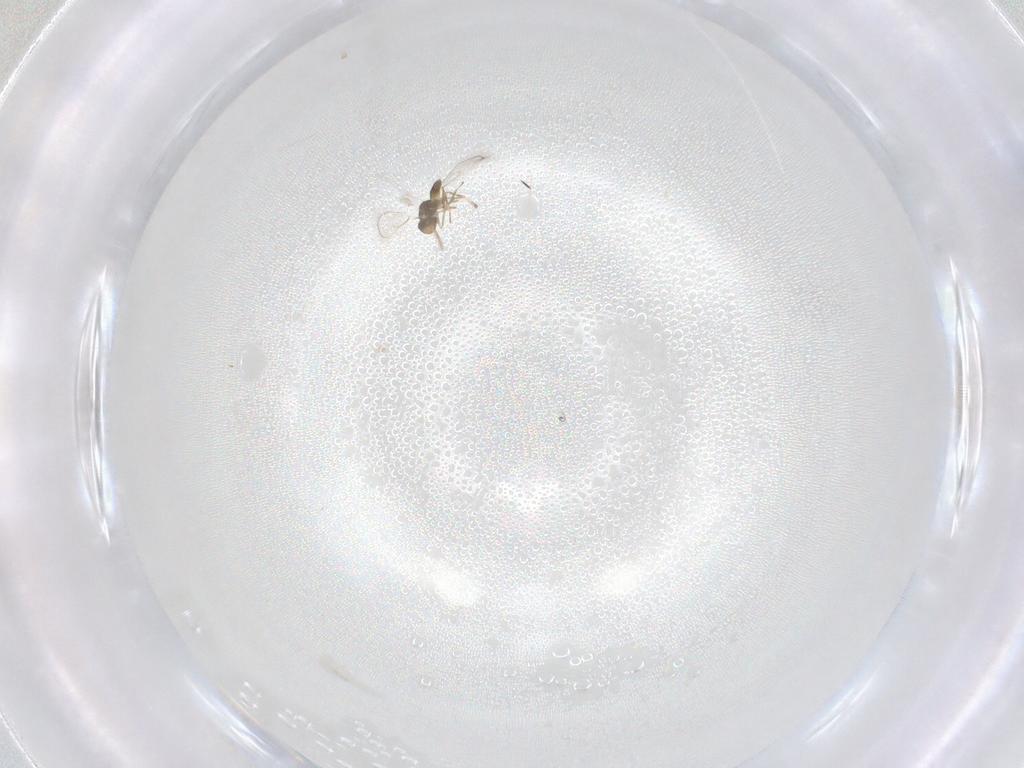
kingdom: Animalia
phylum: Arthropoda
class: Insecta
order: Hymenoptera
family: Eulophidae
